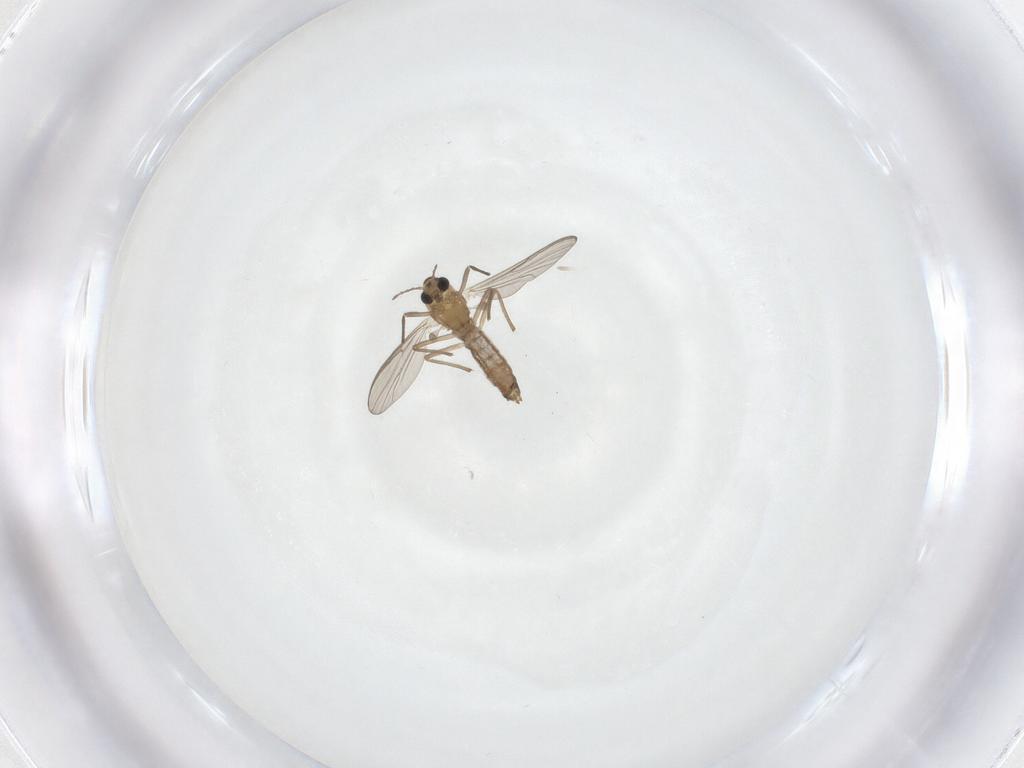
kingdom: Animalia
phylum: Arthropoda
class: Insecta
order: Diptera
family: Chironomidae
